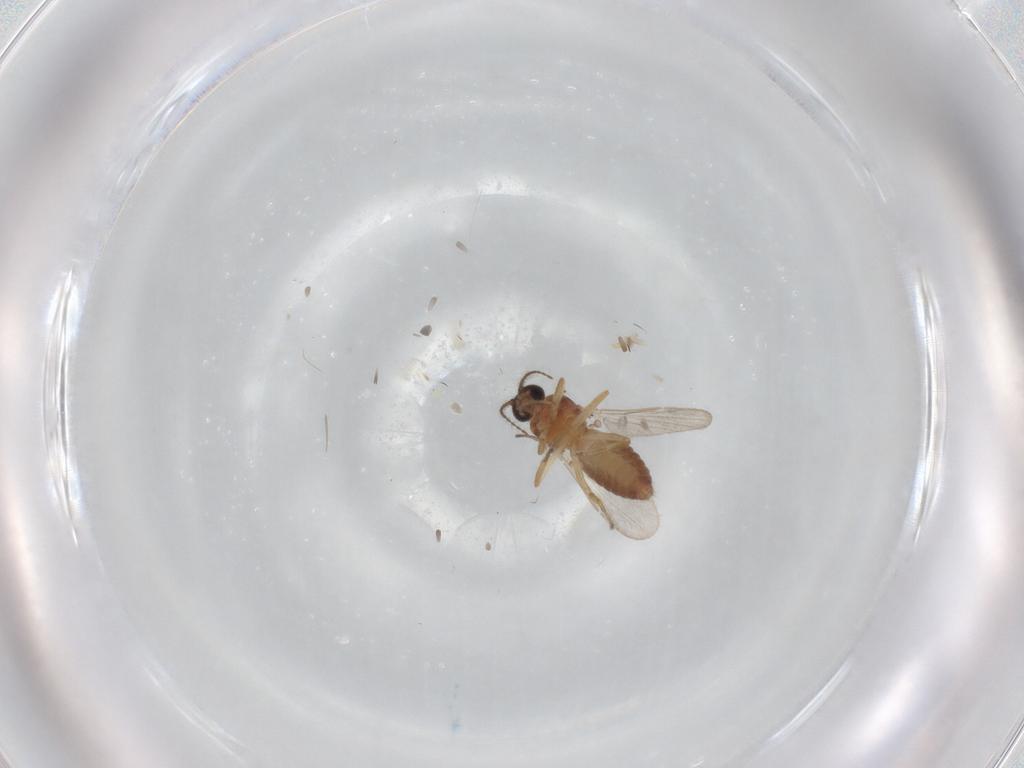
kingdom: Animalia
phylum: Arthropoda
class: Insecta
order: Diptera
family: Ceratopogonidae
